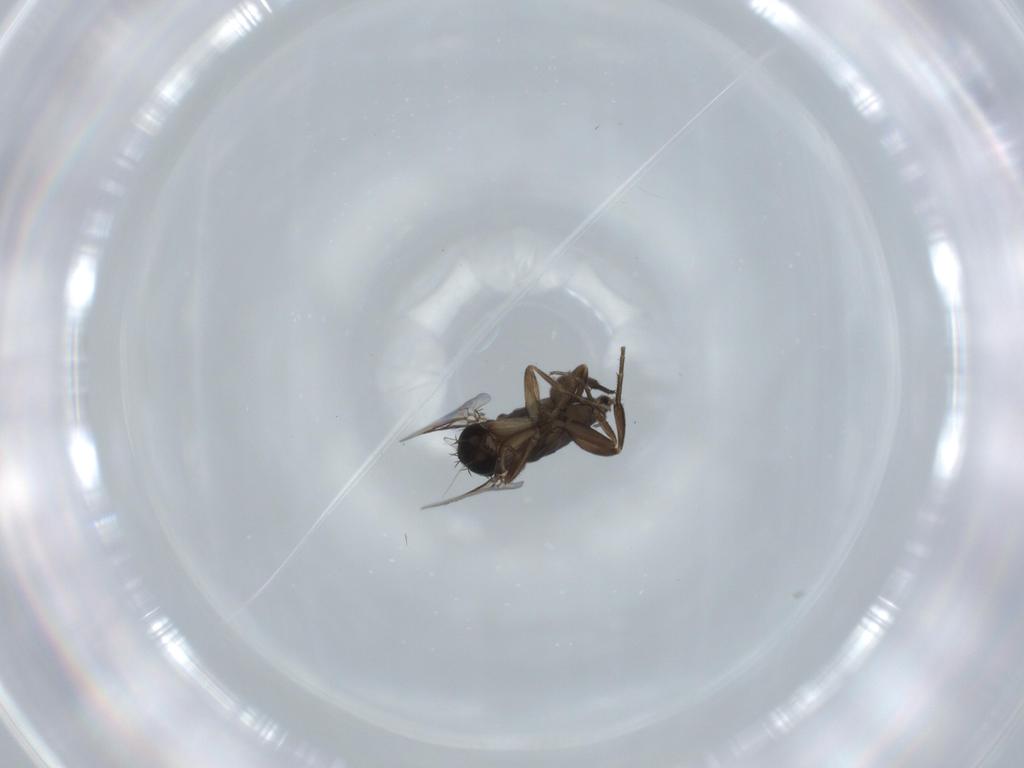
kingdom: Animalia
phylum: Arthropoda
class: Insecta
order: Diptera
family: Phoridae
